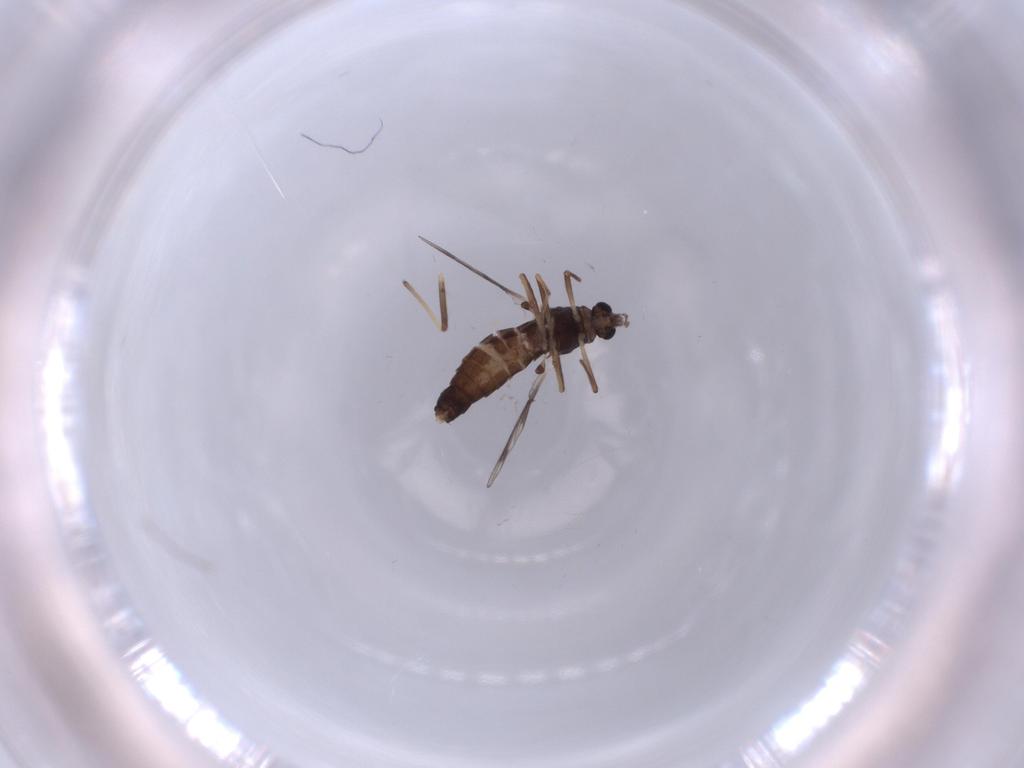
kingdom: Animalia
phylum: Arthropoda
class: Insecta
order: Diptera
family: Chironomidae
